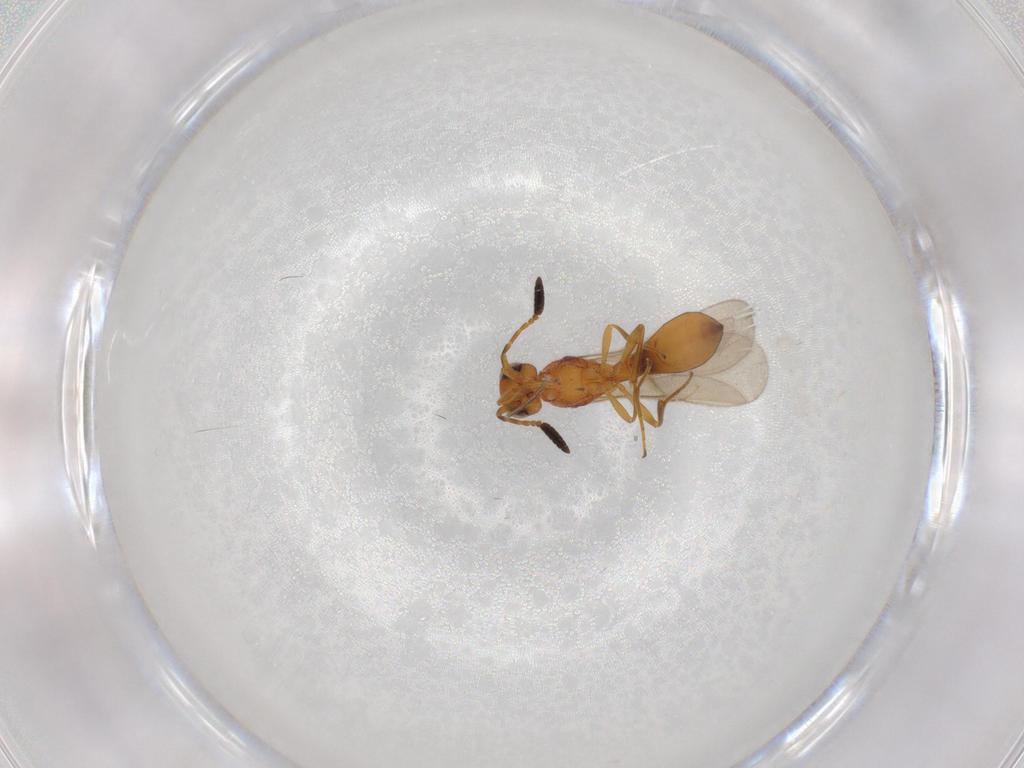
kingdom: Animalia
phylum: Arthropoda
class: Insecta
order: Hymenoptera
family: Scelionidae
